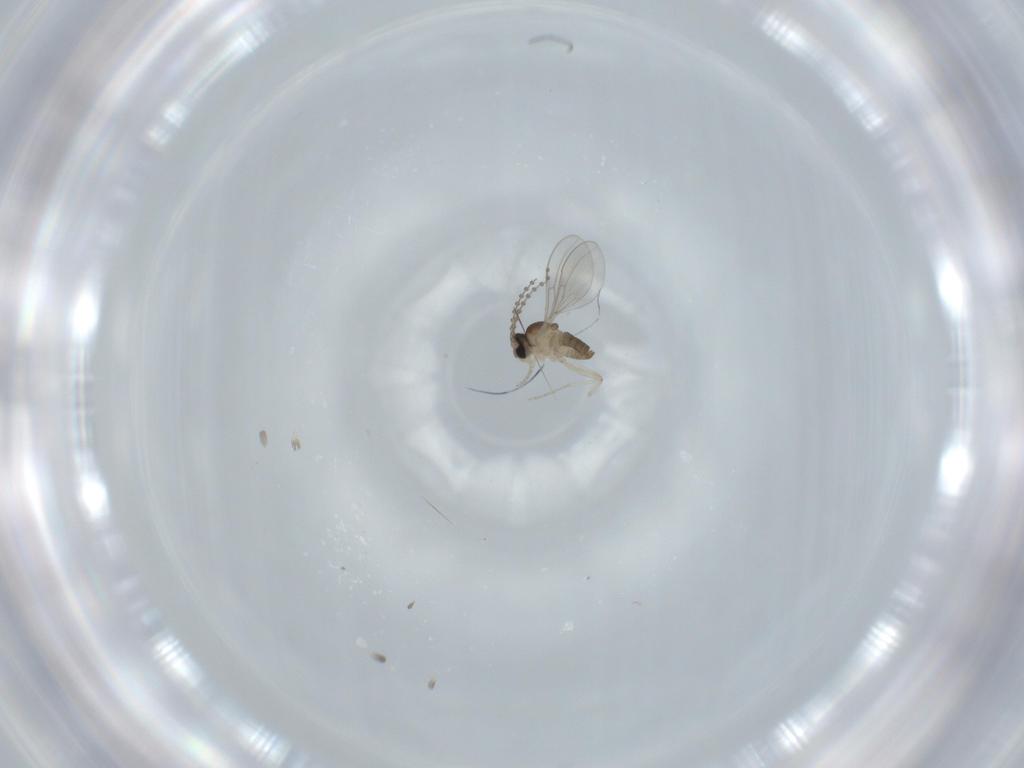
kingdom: Animalia
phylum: Arthropoda
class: Insecta
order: Diptera
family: Cecidomyiidae
